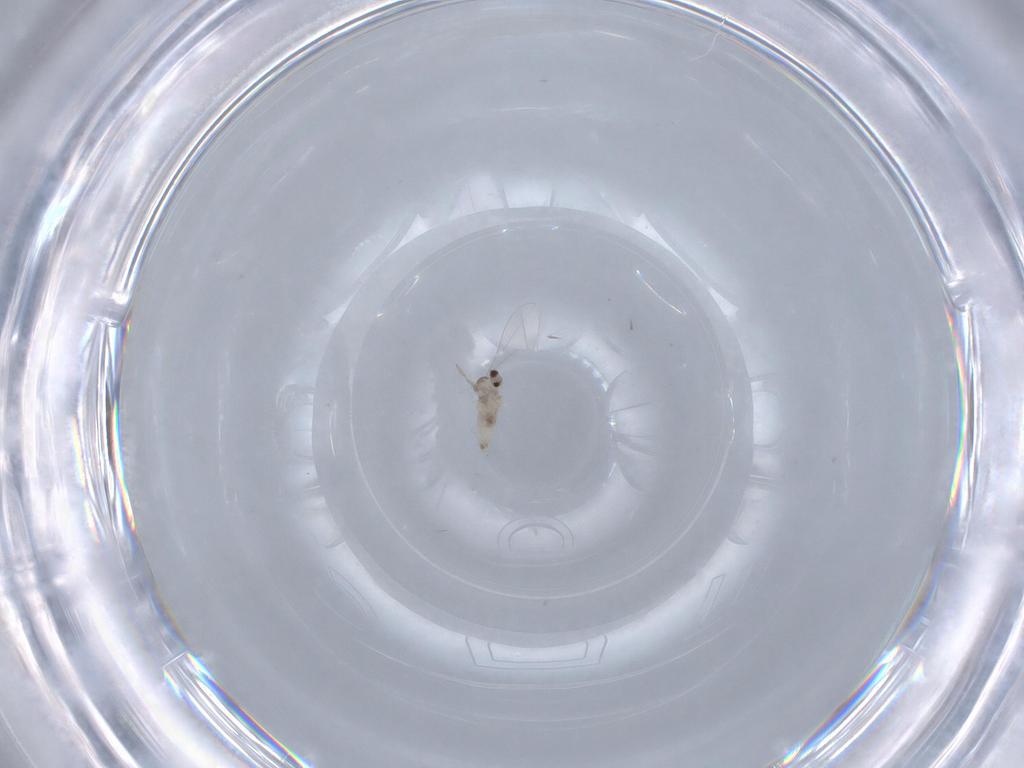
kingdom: Animalia
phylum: Arthropoda
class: Insecta
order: Diptera
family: Cecidomyiidae
